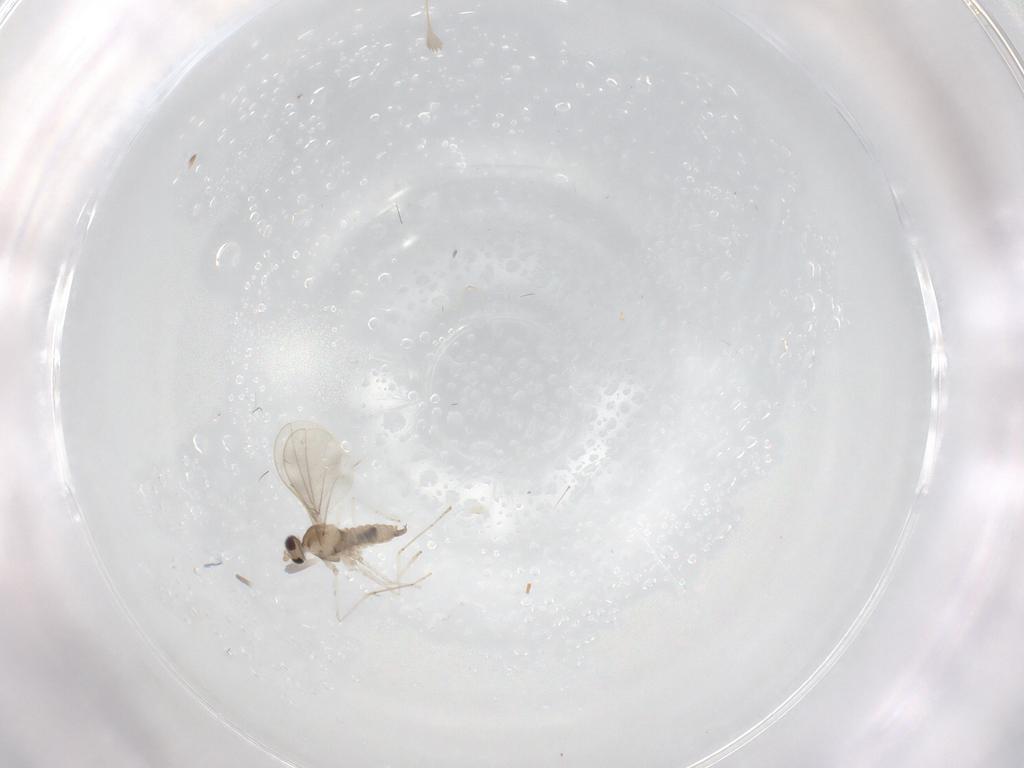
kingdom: Animalia
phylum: Arthropoda
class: Insecta
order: Diptera
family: Cecidomyiidae
